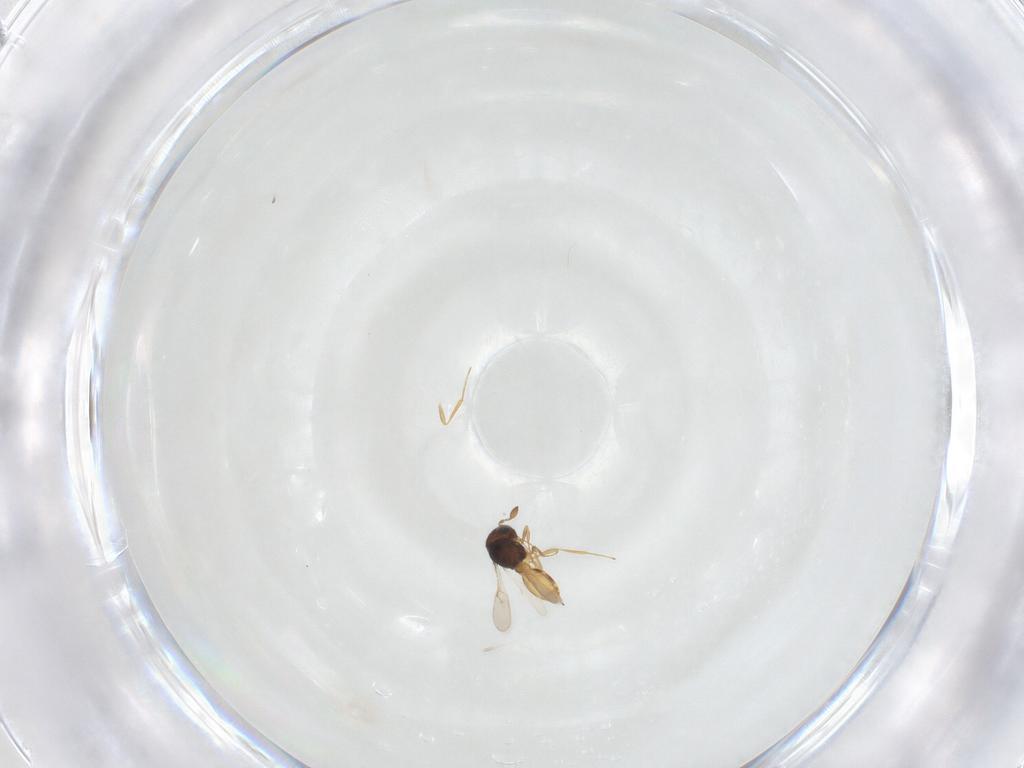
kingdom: Animalia
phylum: Arthropoda
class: Insecta
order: Hymenoptera
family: Scelionidae
